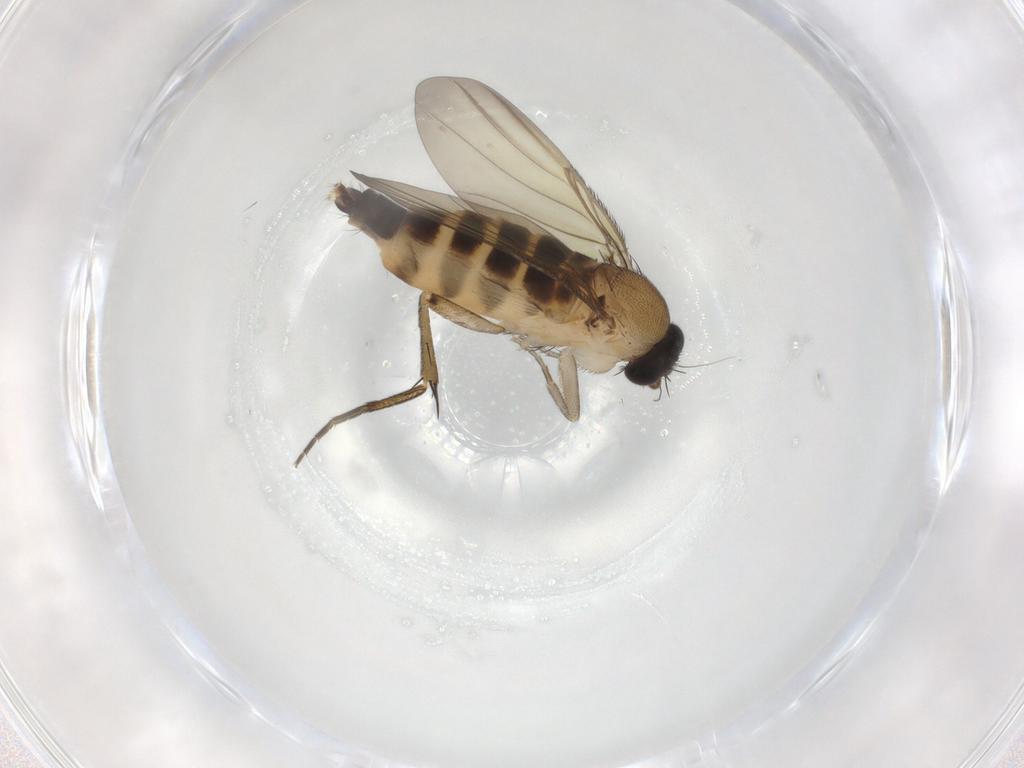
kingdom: Animalia
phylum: Arthropoda
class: Insecta
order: Diptera
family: Phoridae
